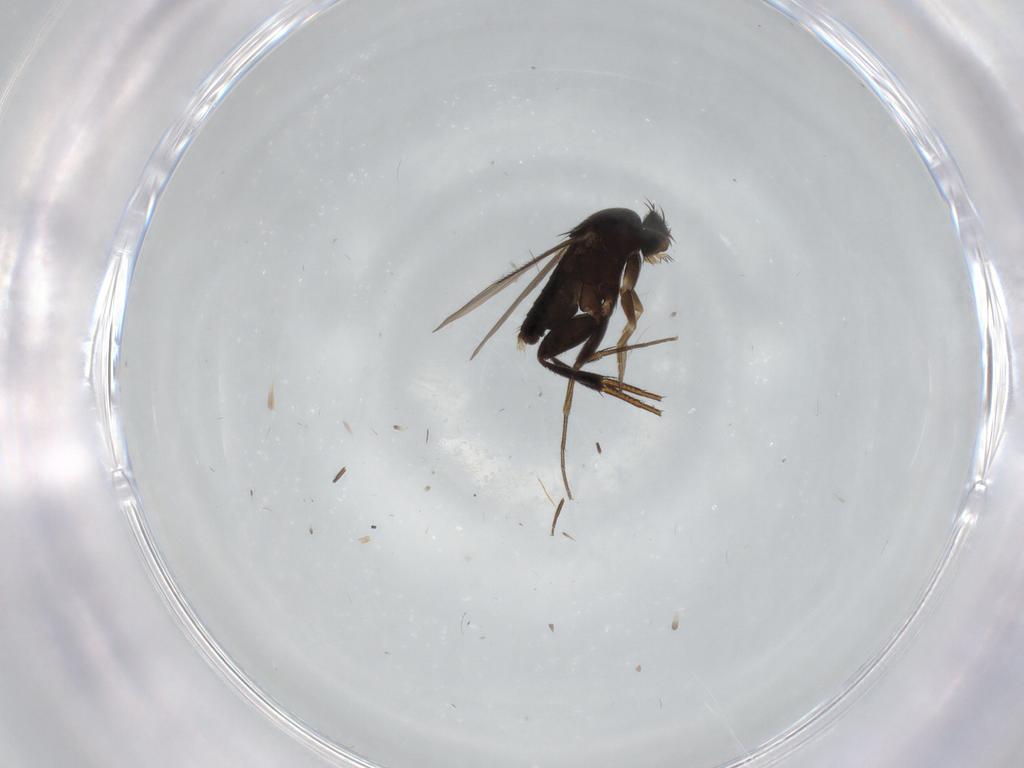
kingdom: Animalia
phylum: Arthropoda
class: Insecta
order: Diptera
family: Phoridae
